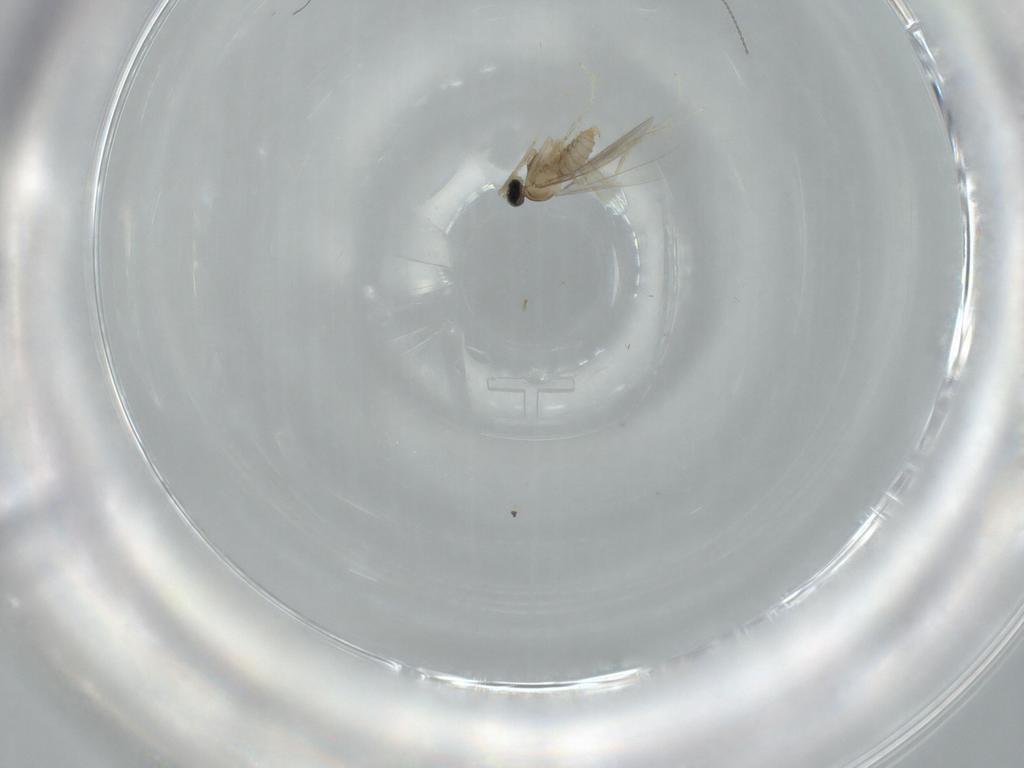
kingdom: Animalia
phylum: Arthropoda
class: Insecta
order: Diptera
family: Cecidomyiidae
